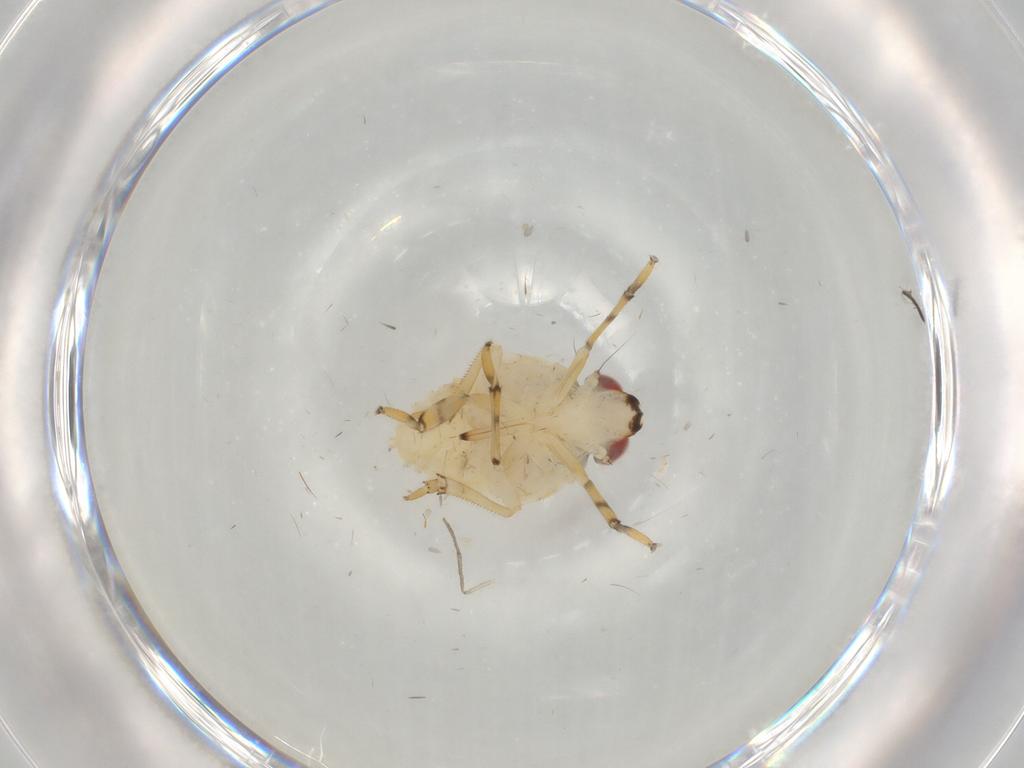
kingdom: Animalia
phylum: Arthropoda
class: Insecta
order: Hemiptera
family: Issidae
